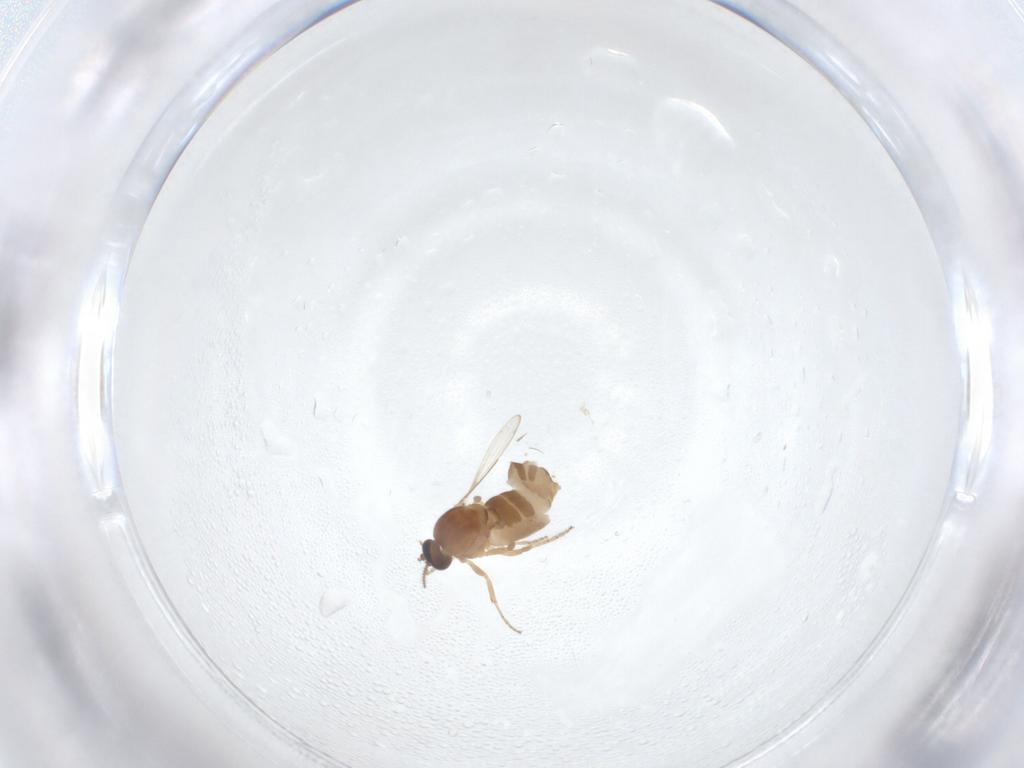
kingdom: Animalia
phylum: Arthropoda
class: Insecta
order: Diptera
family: Ceratopogonidae
